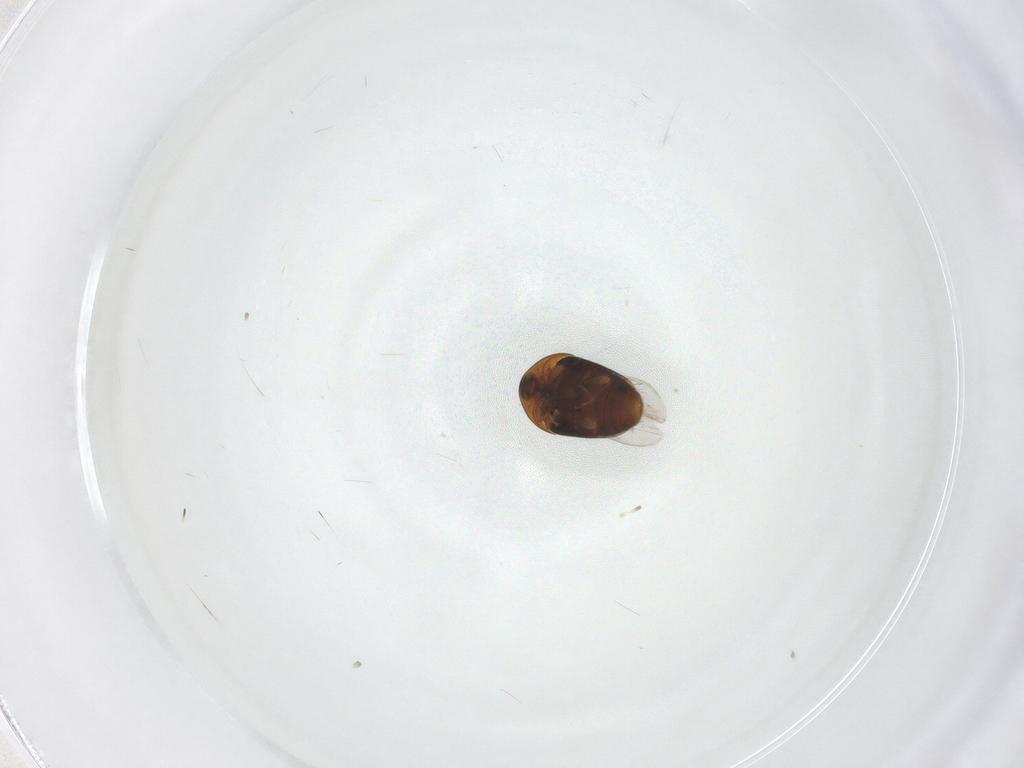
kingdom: Animalia
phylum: Arthropoda
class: Insecta
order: Coleoptera
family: Corylophidae
